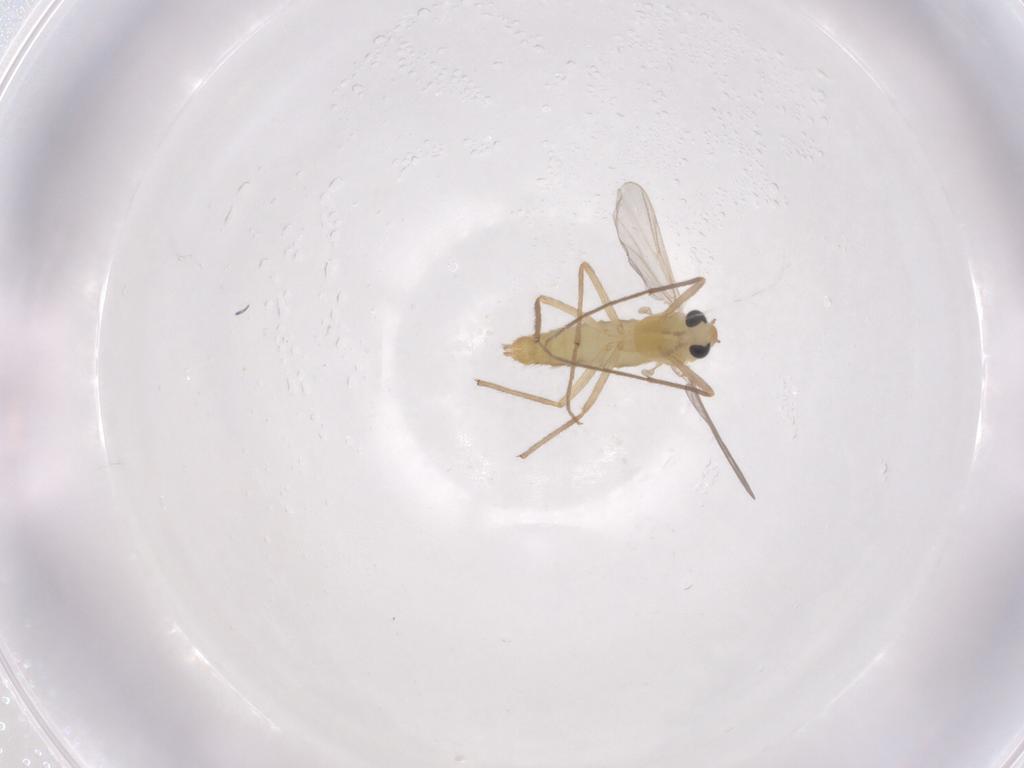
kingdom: Animalia
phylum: Arthropoda
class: Insecta
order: Diptera
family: Chironomidae
